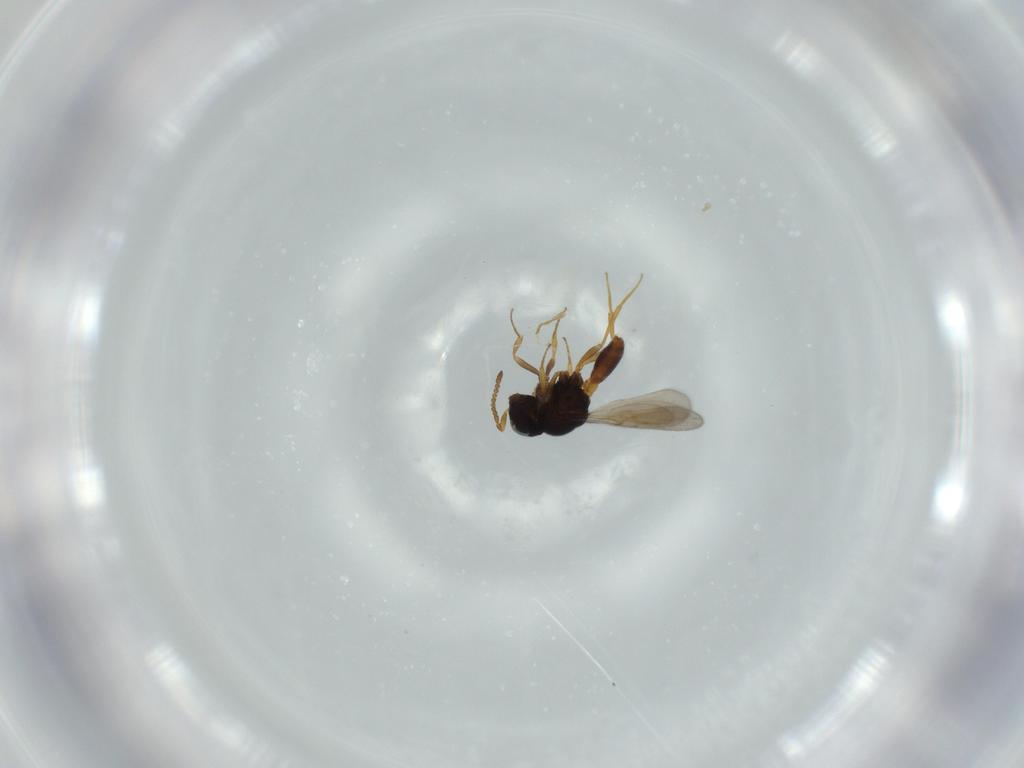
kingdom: Animalia
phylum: Arthropoda
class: Insecta
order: Hymenoptera
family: Scelionidae
